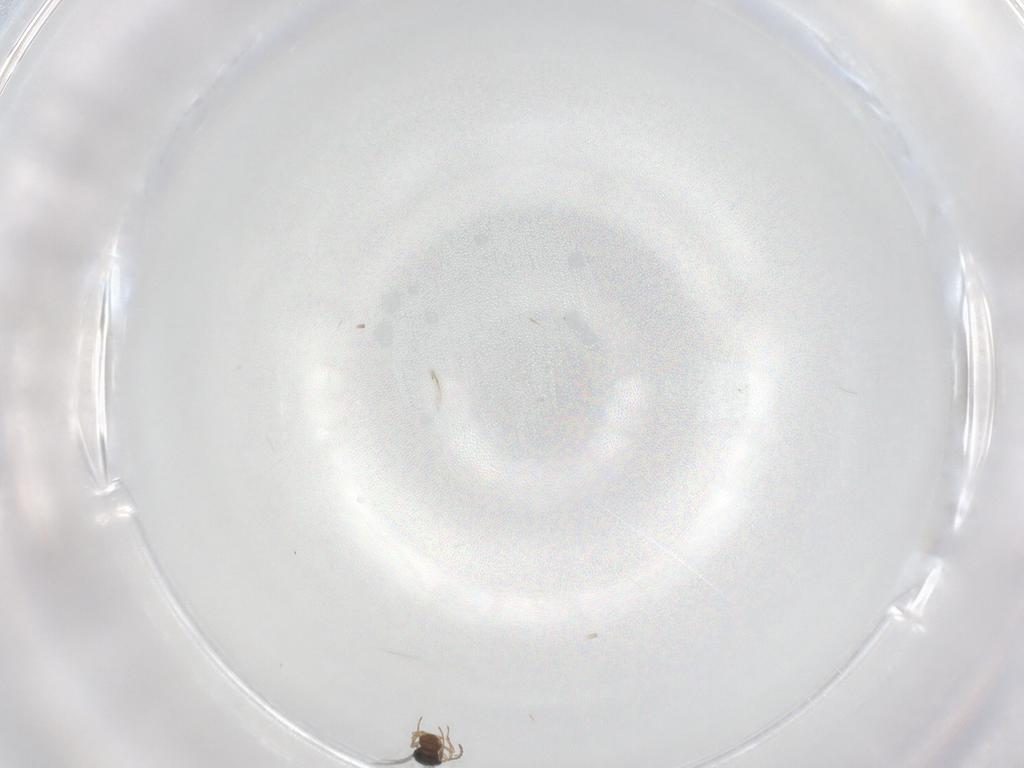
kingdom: Animalia
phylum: Arthropoda
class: Insecta
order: Hymenoptera
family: Scelionidae
